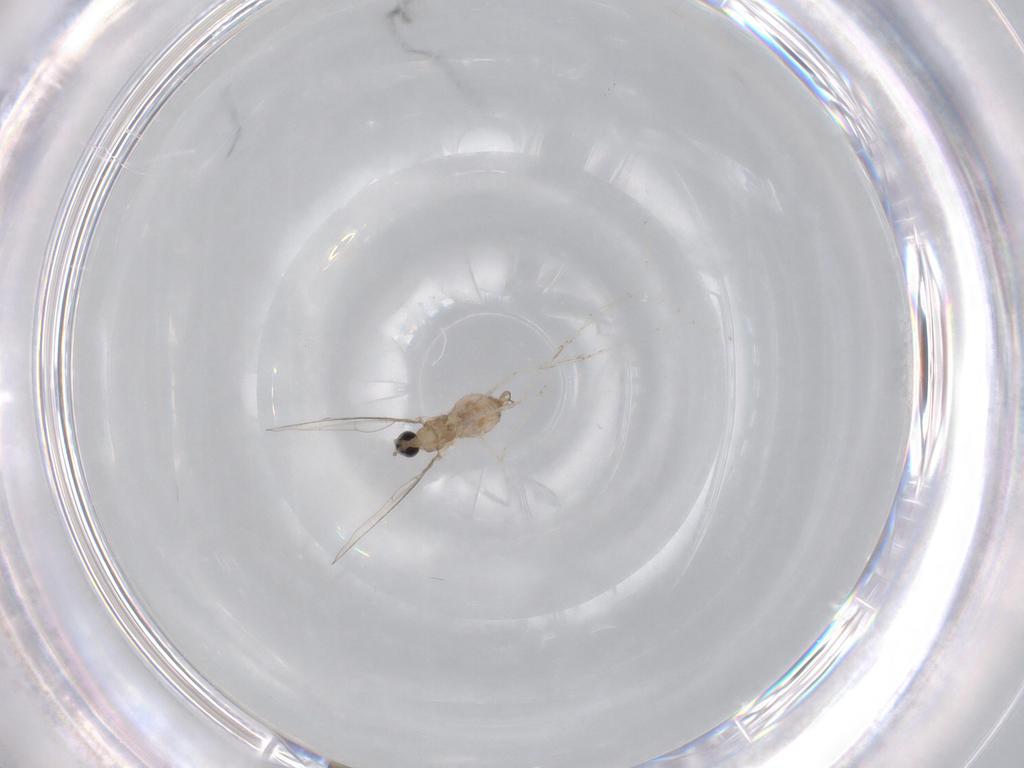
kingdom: Animalia
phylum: Arthropoda
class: Insecta
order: Diptera
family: Cecidomyiidae
